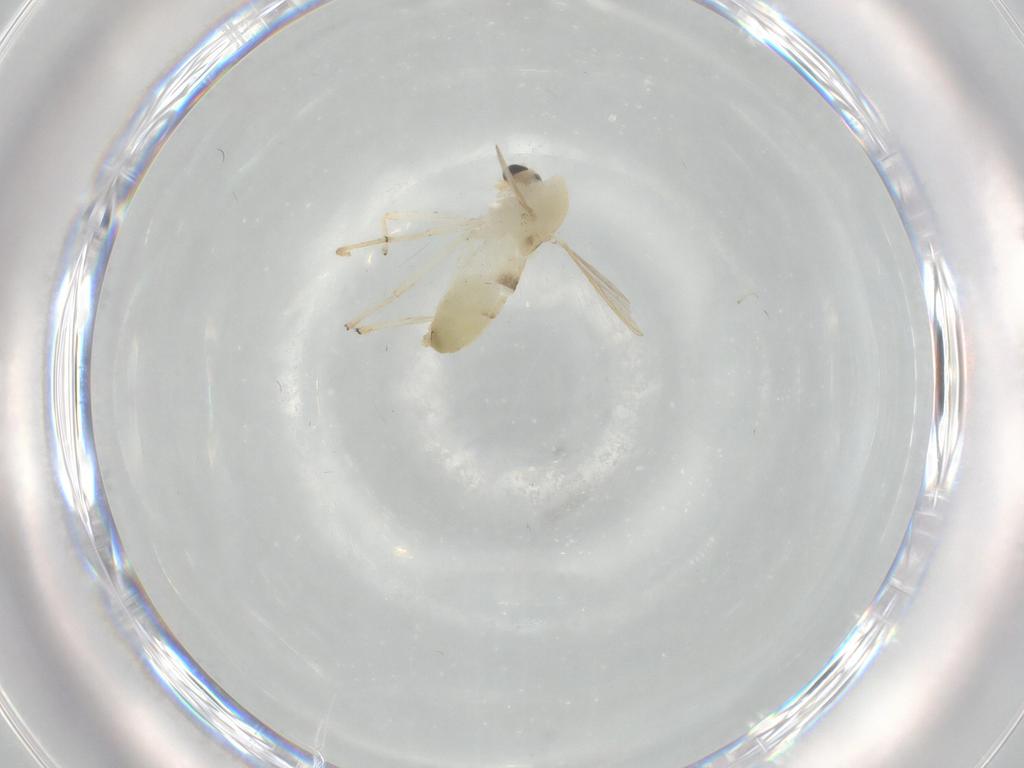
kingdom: Animalia
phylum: Arthropoda
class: Insecta
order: Diptera
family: Chironomidae
